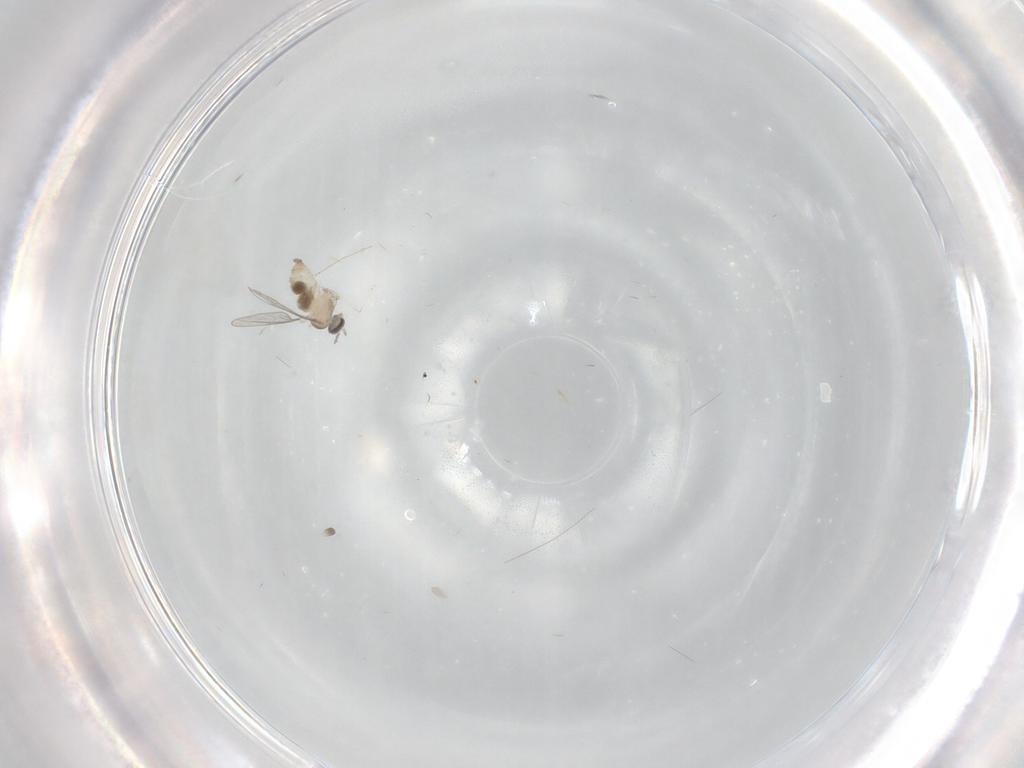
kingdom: Animalia
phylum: Arthropoda
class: Insecta
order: Diptera
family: Cecidomyiidae
